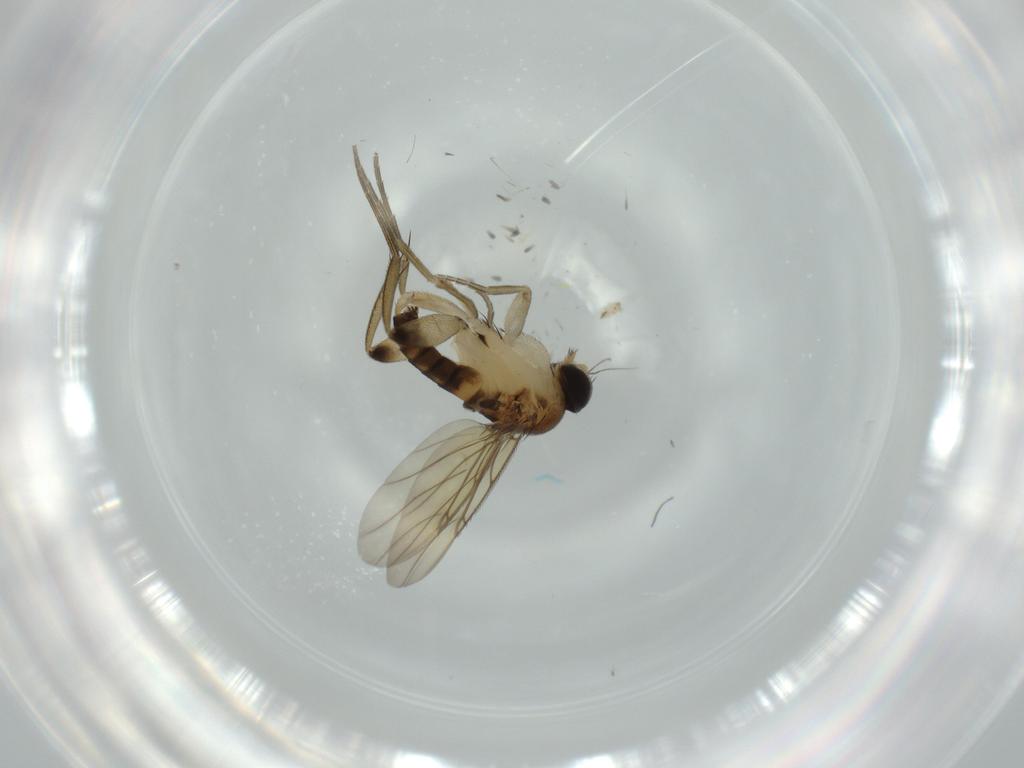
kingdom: Animalia
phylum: Arthropoda
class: Insecta
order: Diptera
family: Phoridae
